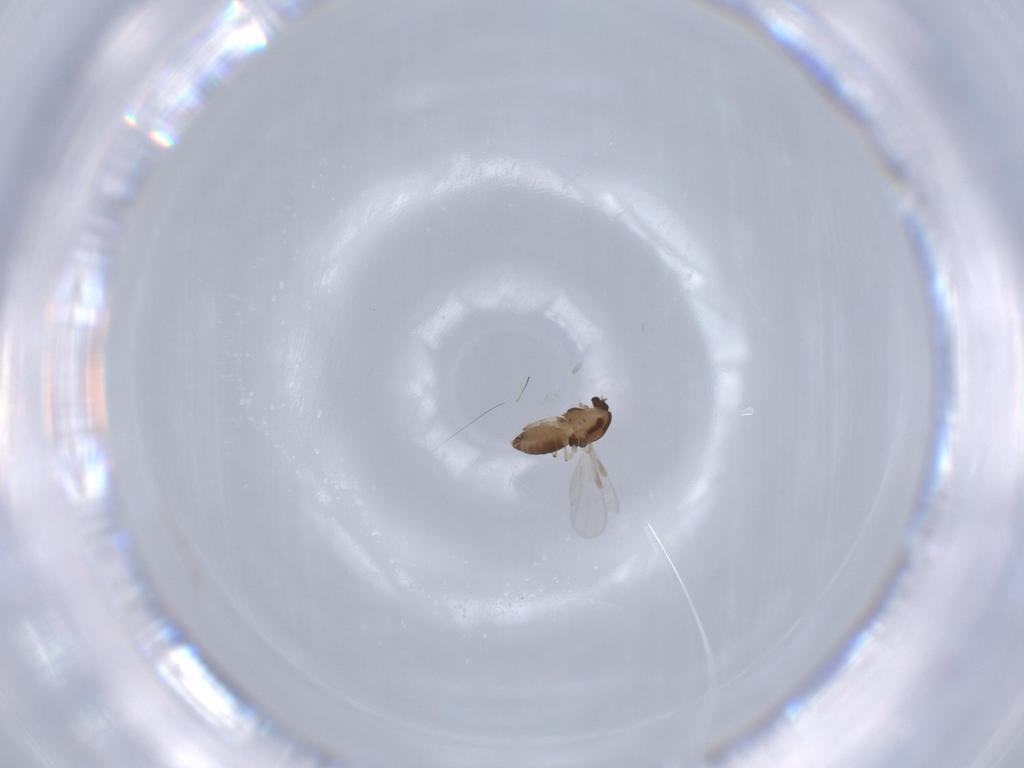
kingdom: Animalia
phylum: Arthropoda
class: Insecta
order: Diptera
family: Chironomidae
